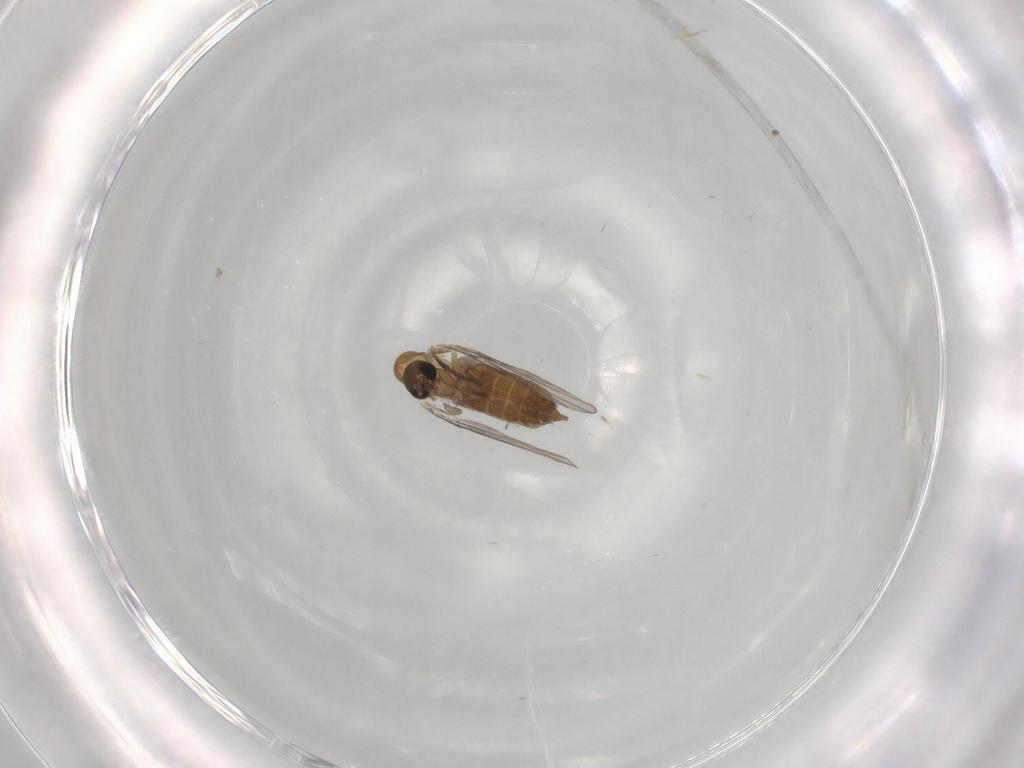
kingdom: Animalia
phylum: Arthropoda
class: Insecta
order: Diptera
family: Psychodidae
